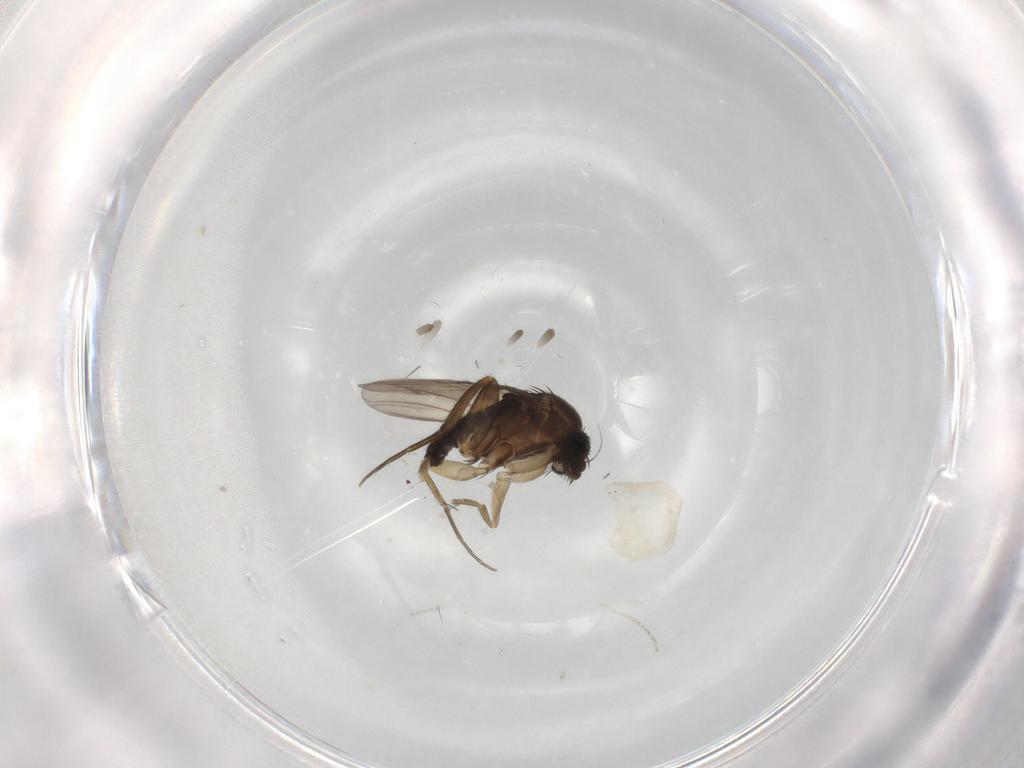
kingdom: Animalia
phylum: Arthropoda
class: Insecta
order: Diptera
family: Phoridae
